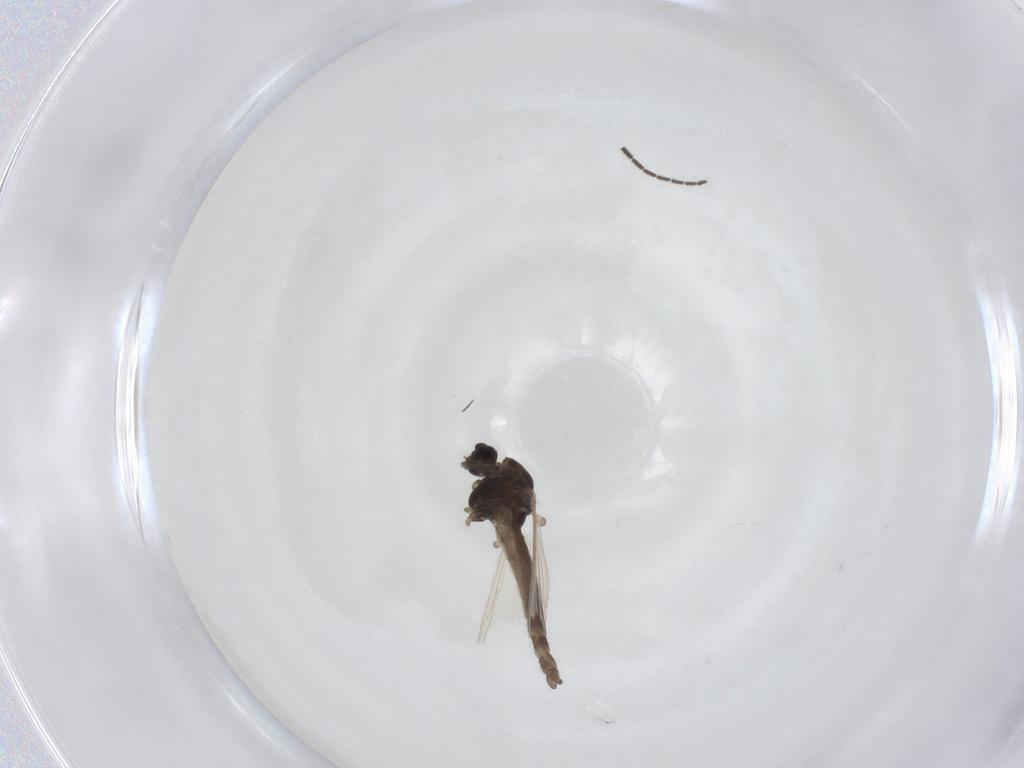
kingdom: Animalia
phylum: Arthropoda
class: Insecta
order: Diptera
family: Chironomidae
